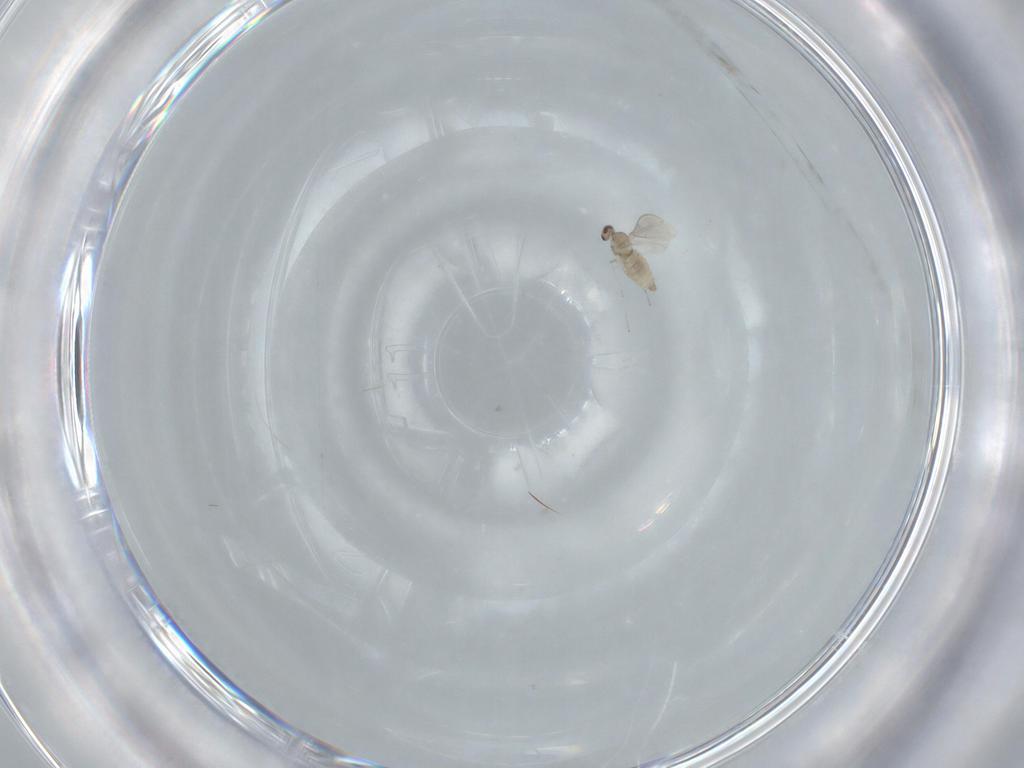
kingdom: Animalia
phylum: Arthropoda
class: Insecta
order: Diptera
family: Cecidomyiidae
